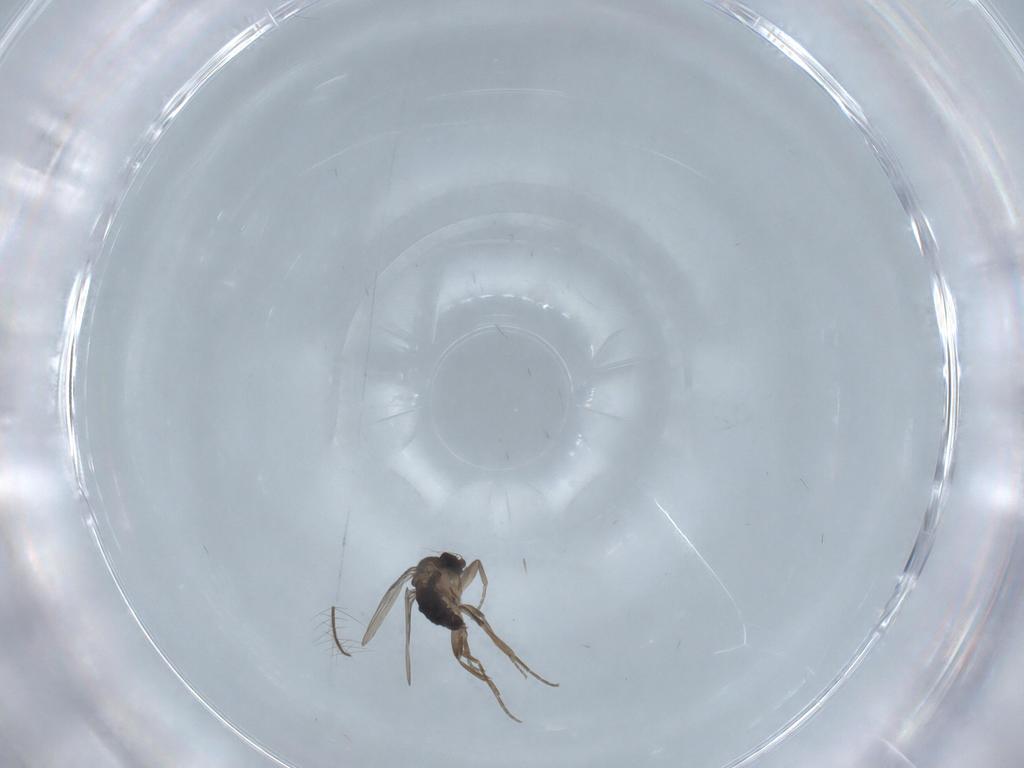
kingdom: Animalia
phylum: Arthropoda
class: Insecta
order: Diptera
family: Phoridae
